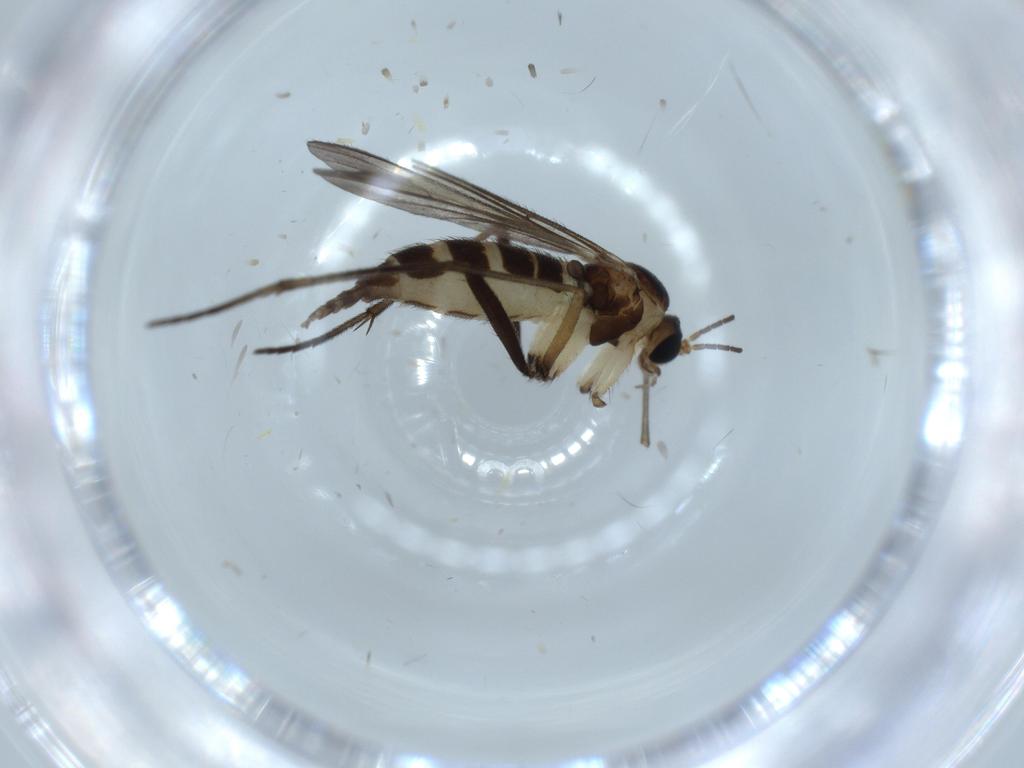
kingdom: Animalia
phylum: Arthropoda
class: Insecta
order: Diptera
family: Sciaridae
